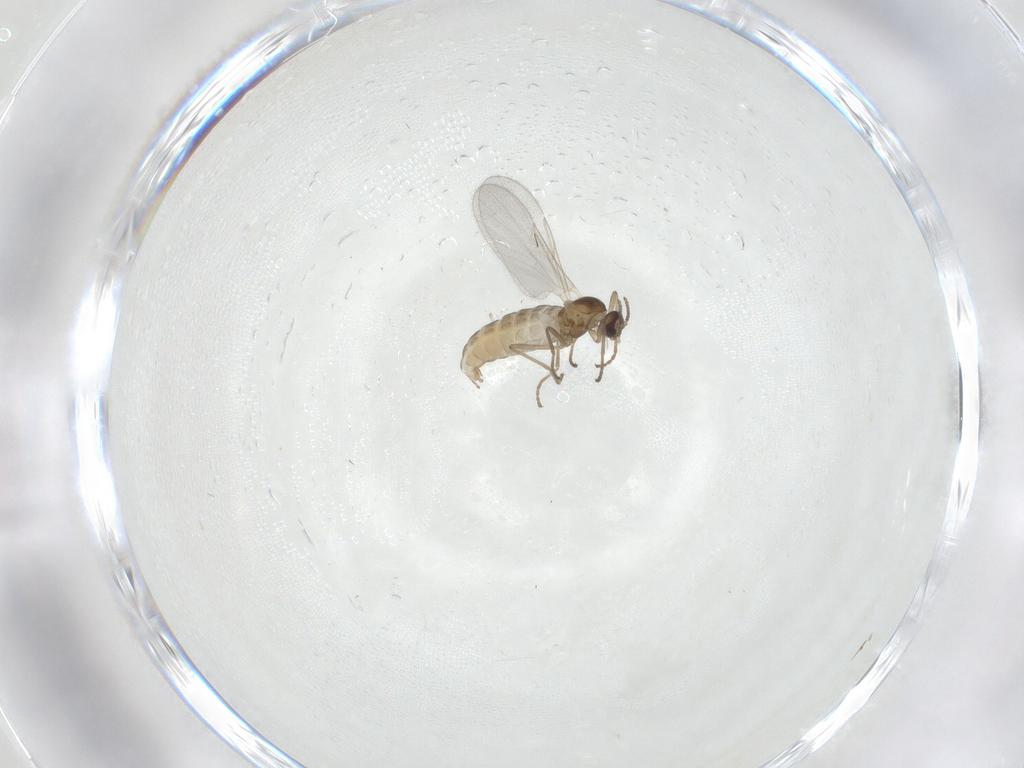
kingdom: Animalia
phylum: Arthropoda
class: Insecta
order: Diptera
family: Cecidomyiidae
